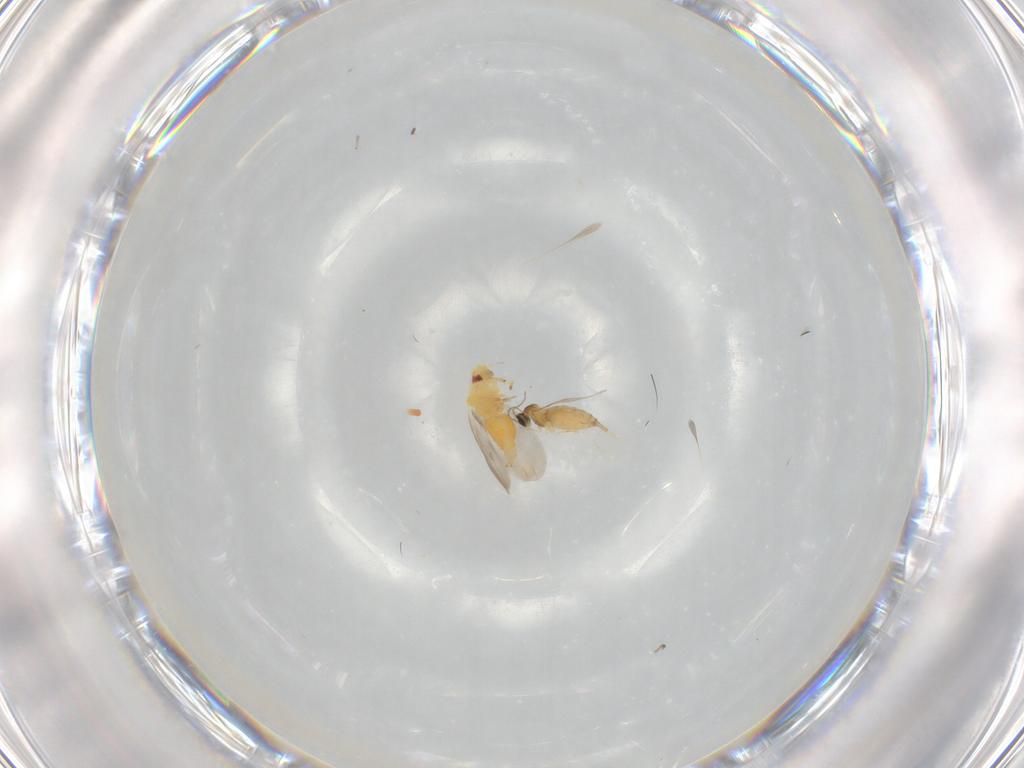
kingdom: Animalia
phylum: Arthropoda
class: Insecta
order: Hemiptera
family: Aleyrodidae
